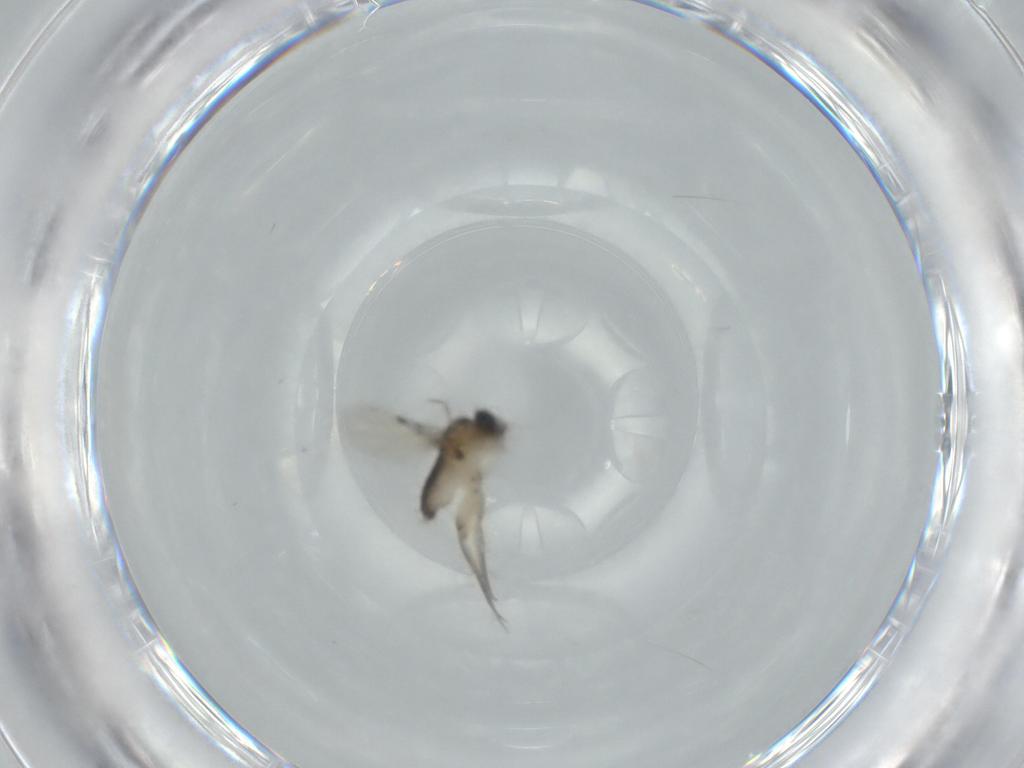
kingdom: Animalia
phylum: Arthropoda
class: Insecta
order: Diptera
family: Phoridae
